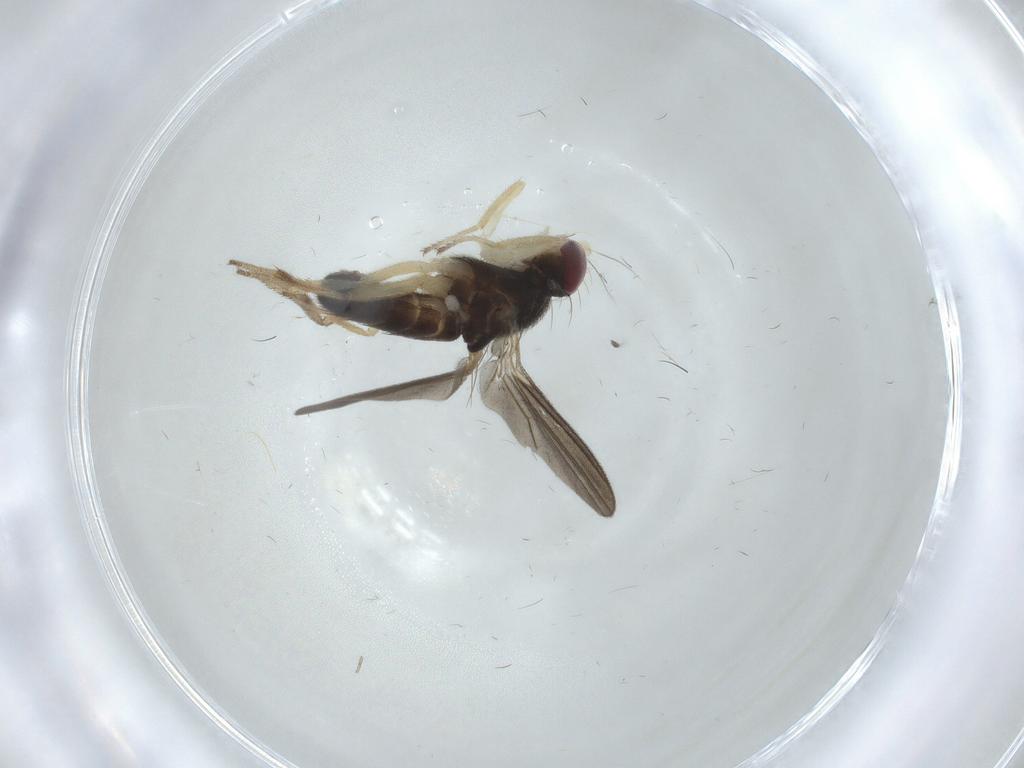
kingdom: Animalia
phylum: Arthropoda
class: Insecta
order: Diptera
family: Clusiidae
